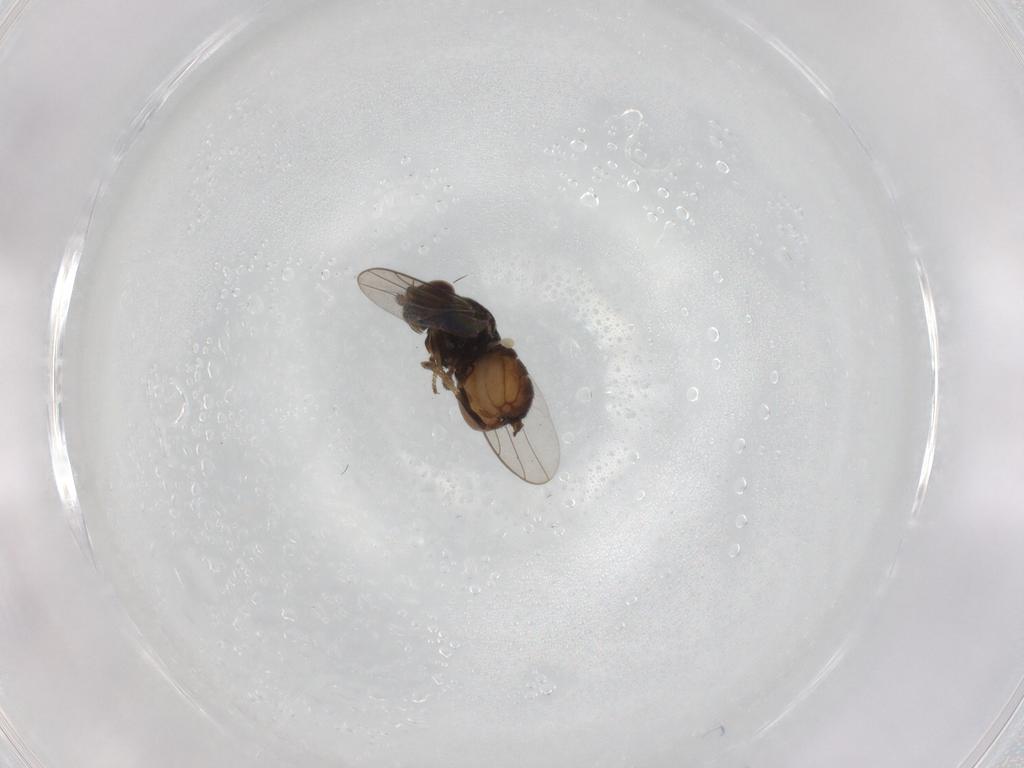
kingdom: Animalia
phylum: Arthropoda
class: Insecta
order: Diptera
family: Chloropidae
